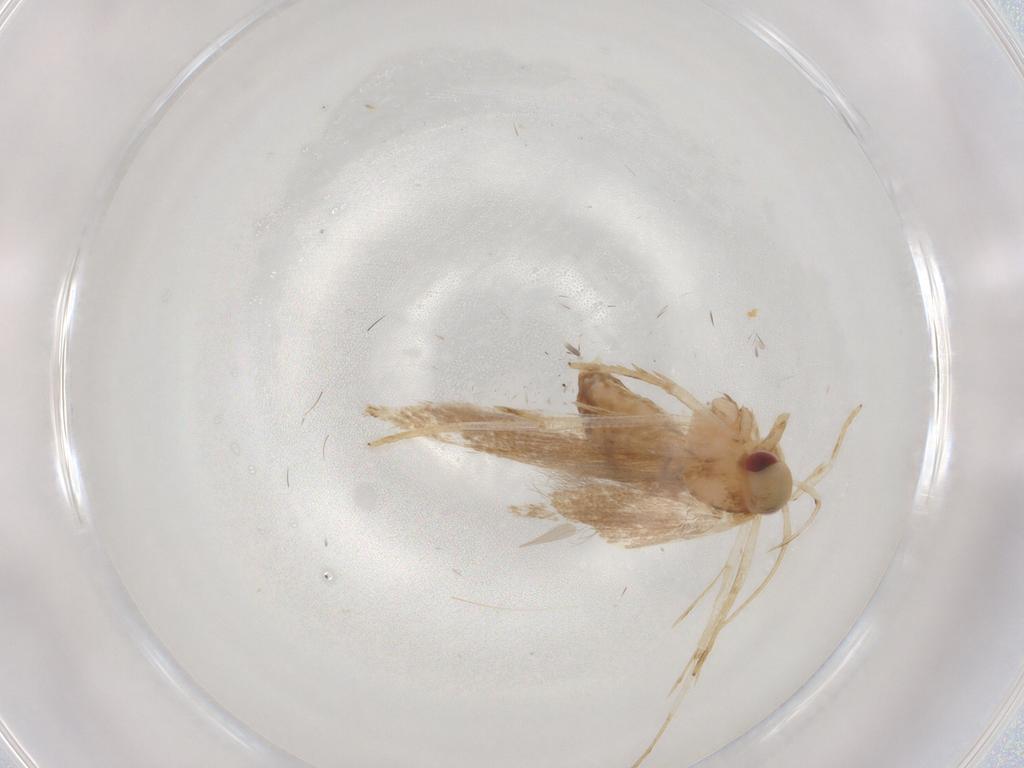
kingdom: Animalia
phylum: Arthropoda
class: Insecta
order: Lepidoptera
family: Cosmopterigidae
